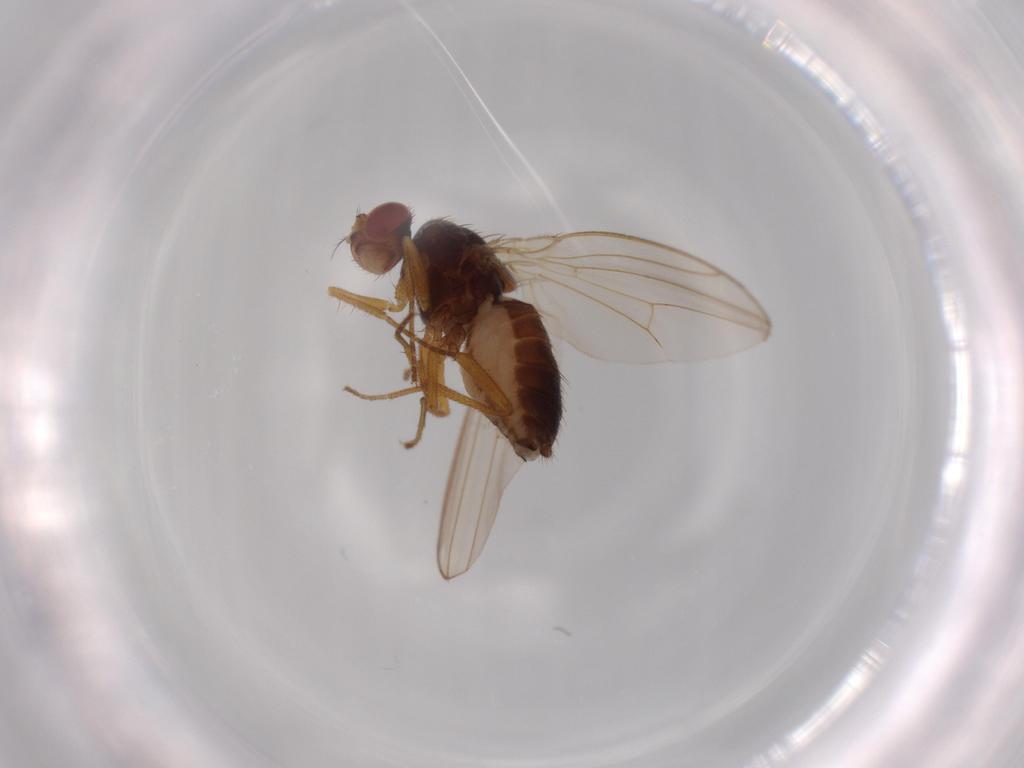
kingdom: Animalia
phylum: Arthropoda
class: Insecta
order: Diptera
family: Drosophilidae
